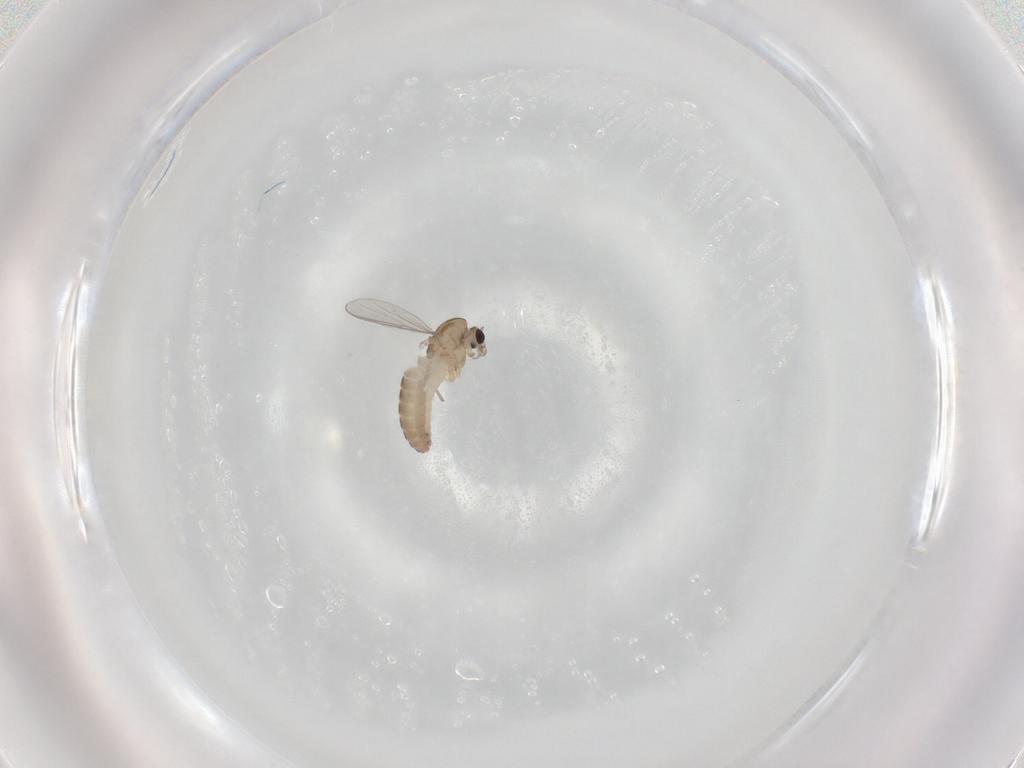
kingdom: Animalia
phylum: Arthropoda
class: Insecta
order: Diptera
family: Chironomidae
